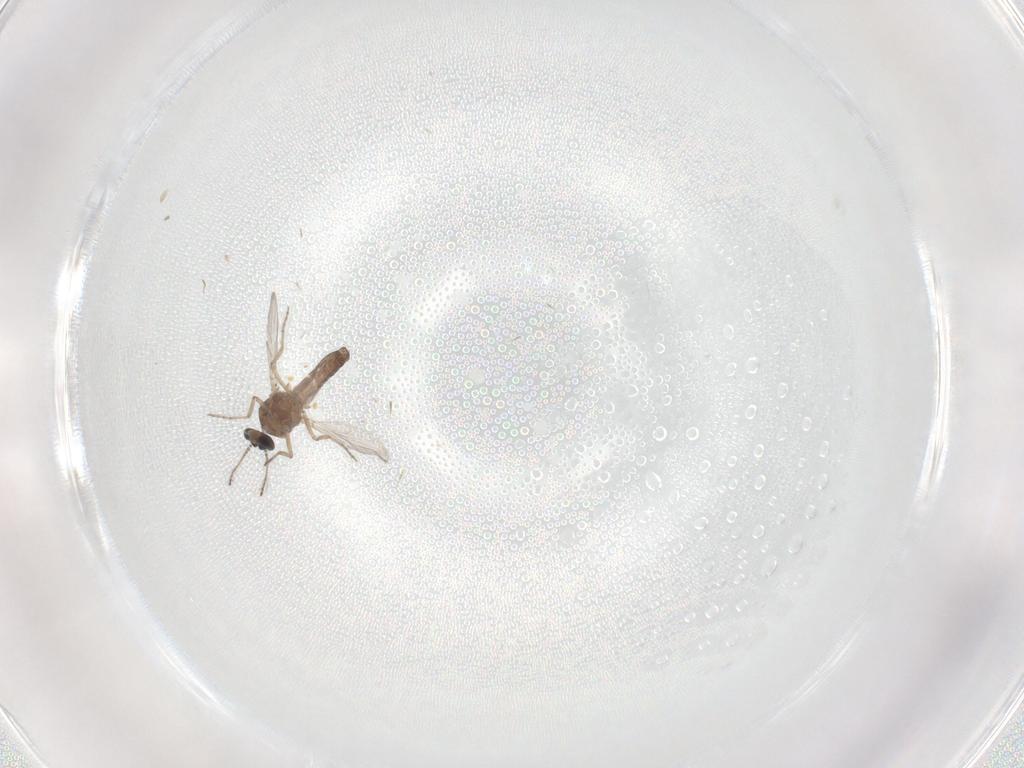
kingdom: Animalia
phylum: Arthropoda
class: Insecta
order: Diptera
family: Ceratopogonidae
